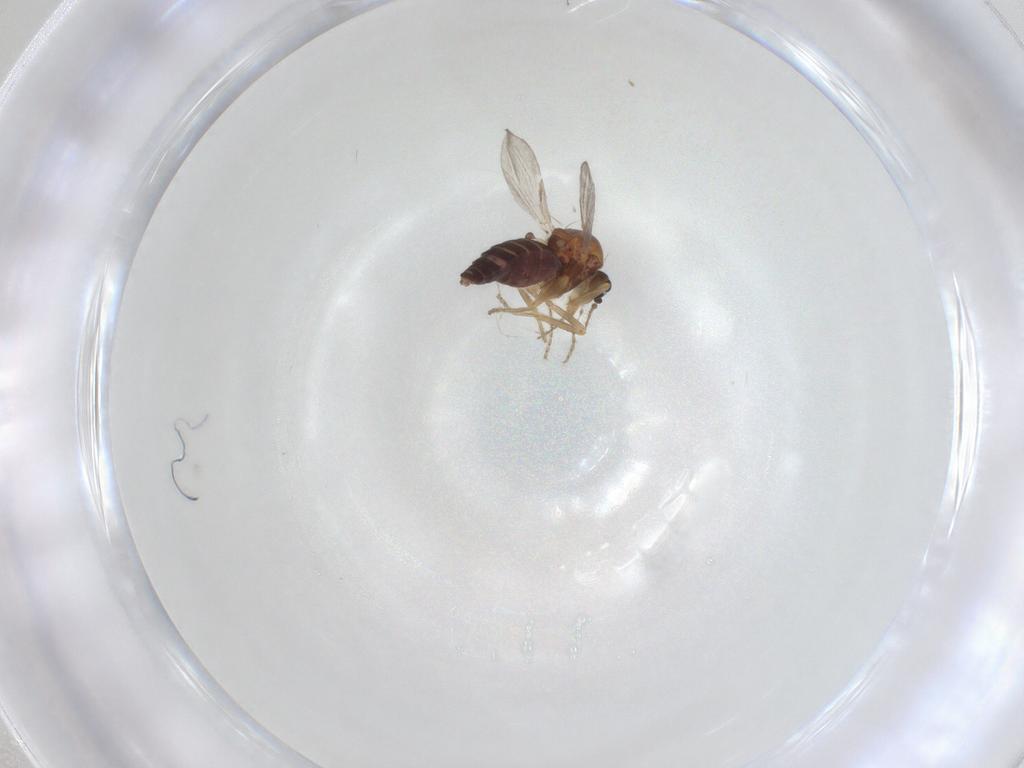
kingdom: Animalia
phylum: Arthropoda
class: Insecta
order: Diptera
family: Ceratopogonidae
